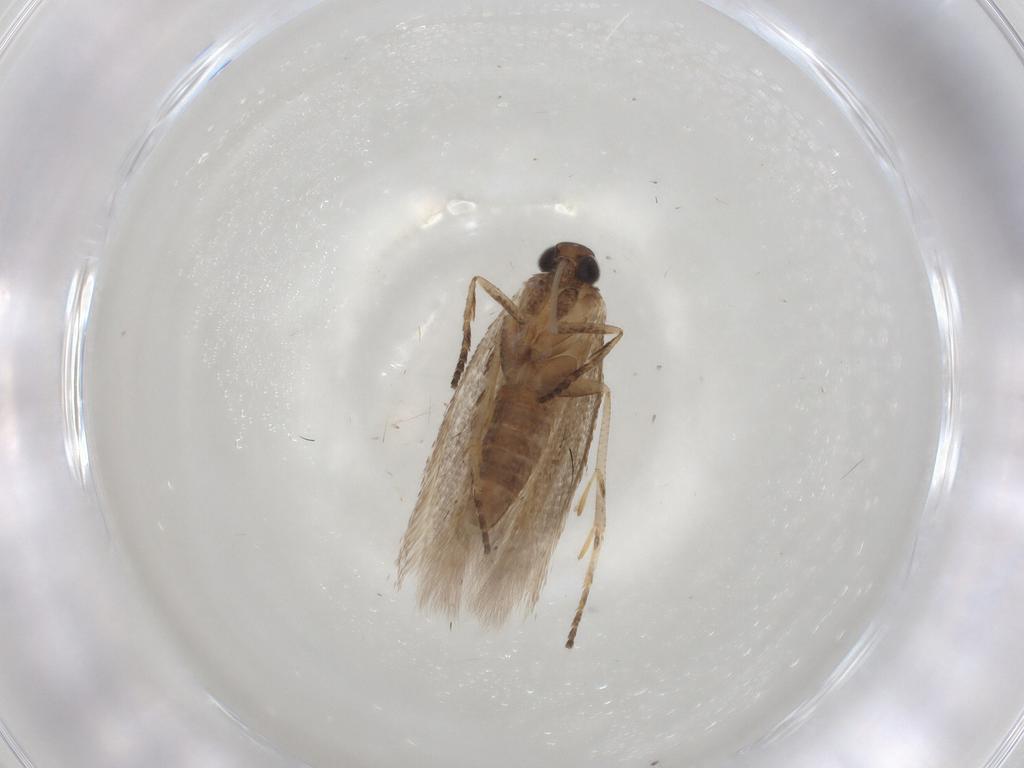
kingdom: Animalia
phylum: Arthropoda
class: Insecta
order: Lepidoptera
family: Gelechiidae
